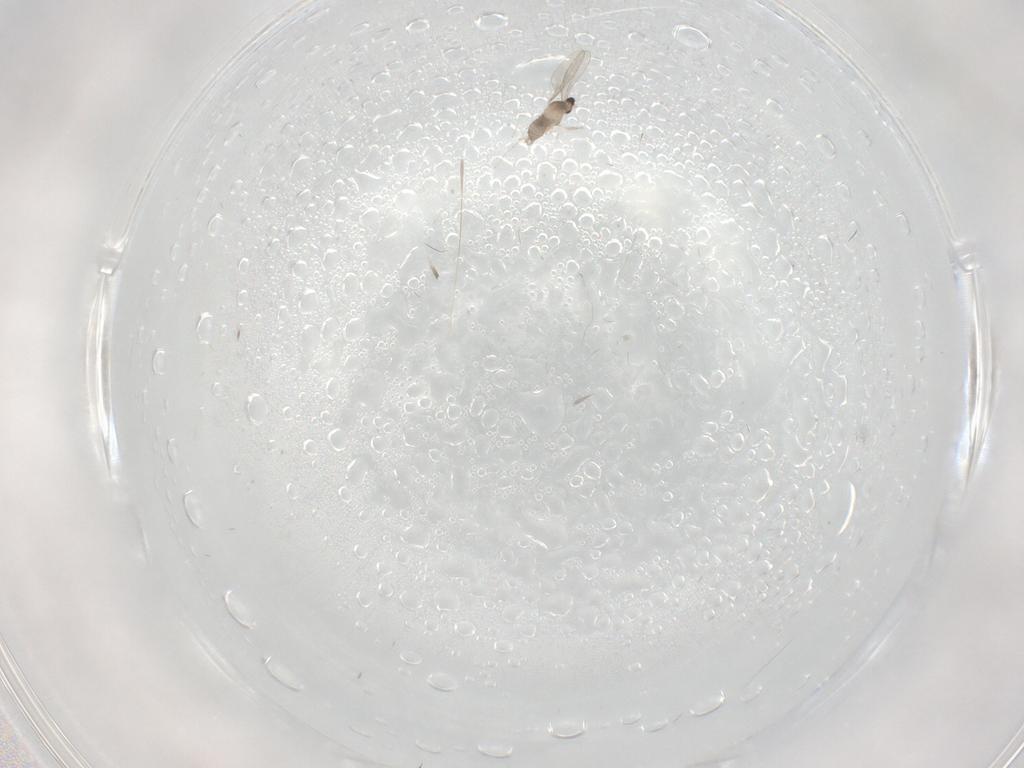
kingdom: Animalia
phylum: Arthropoda
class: Insecta
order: Diptera
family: Cecidomyiidae
